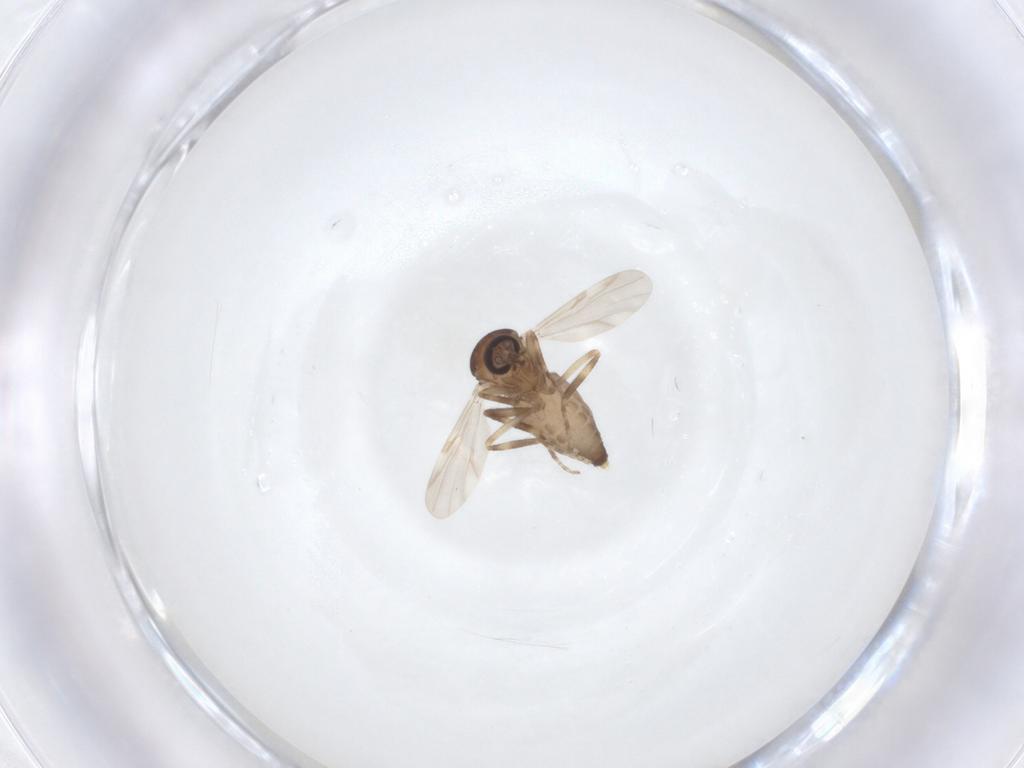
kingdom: Animalia
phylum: Arthropoda
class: Insecta
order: Diptera
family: Ceratopogonidae
